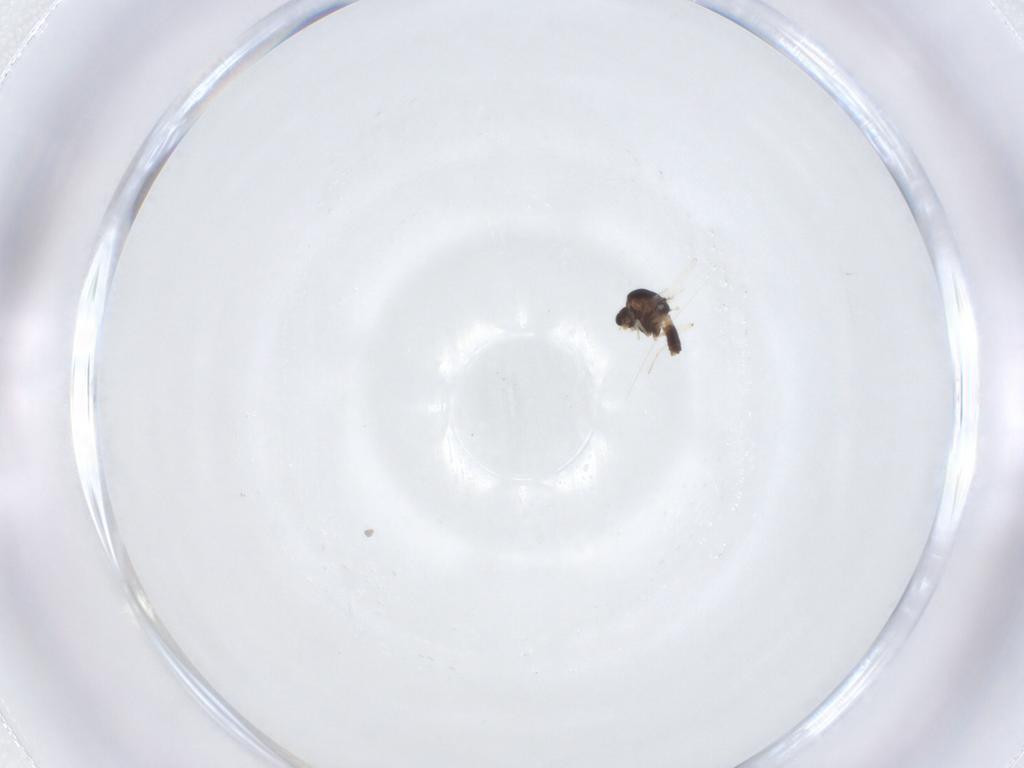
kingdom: Animalia
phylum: Arthropoda
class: Insecta
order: Diptera
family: Chironomidae
